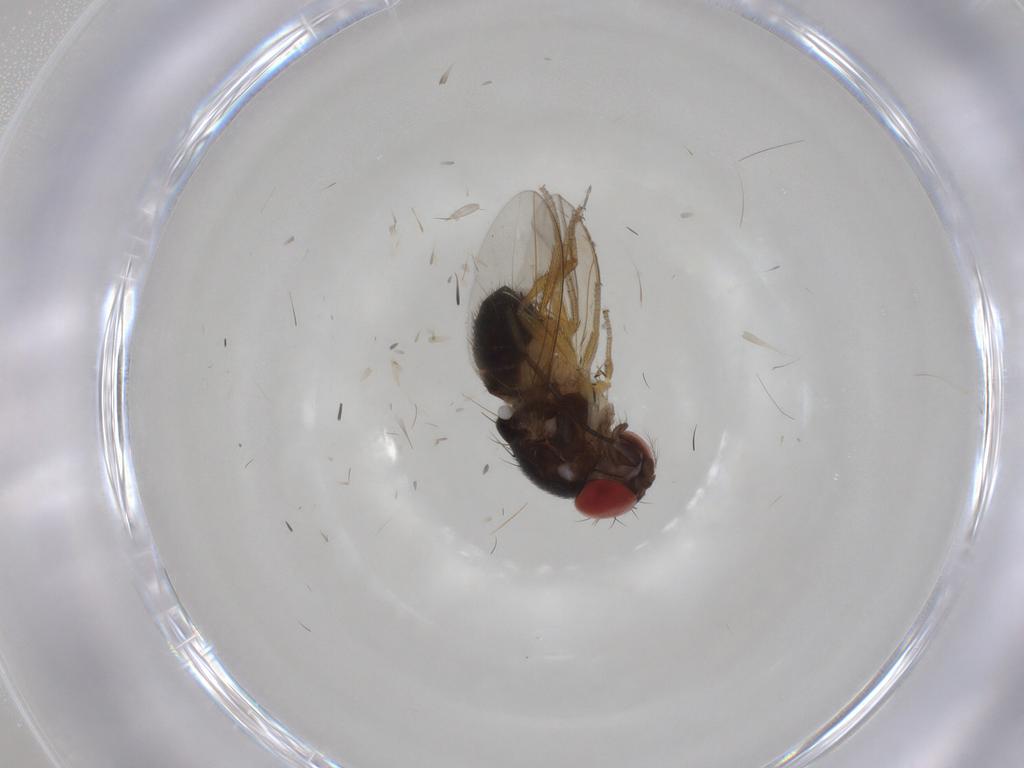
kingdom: Animalia
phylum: Arthropoda
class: Insecta
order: Diptera
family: Drosophilidae
